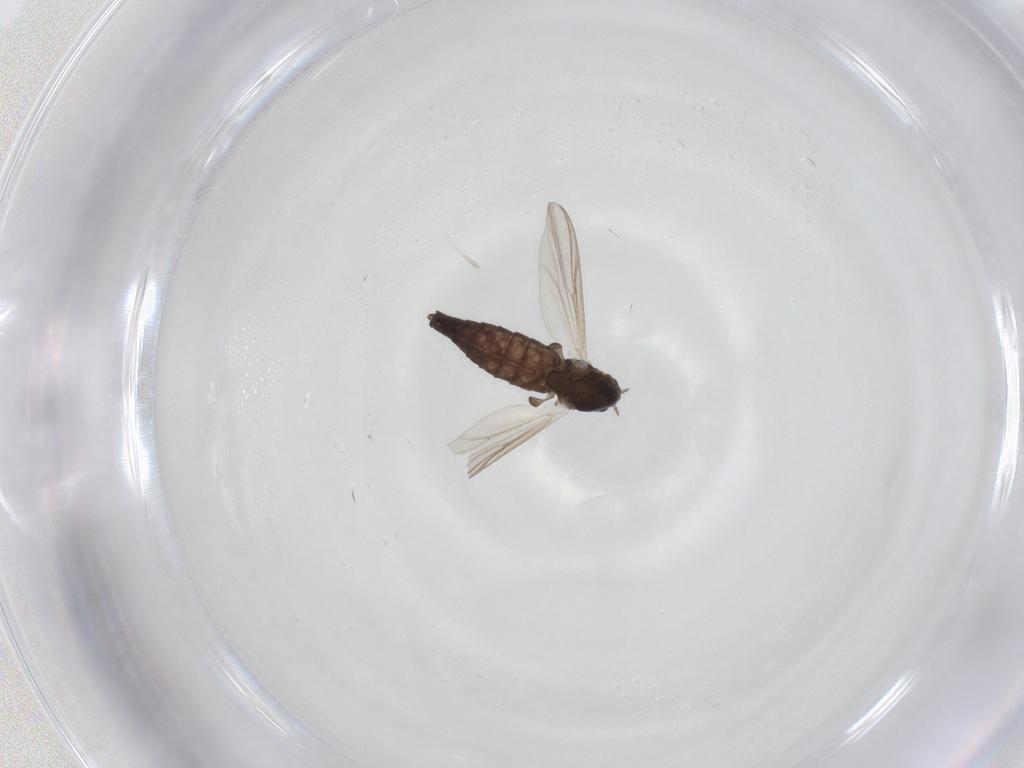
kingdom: Animalia
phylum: Arthropoda
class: Insecta
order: Diptera
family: Chironomidae
